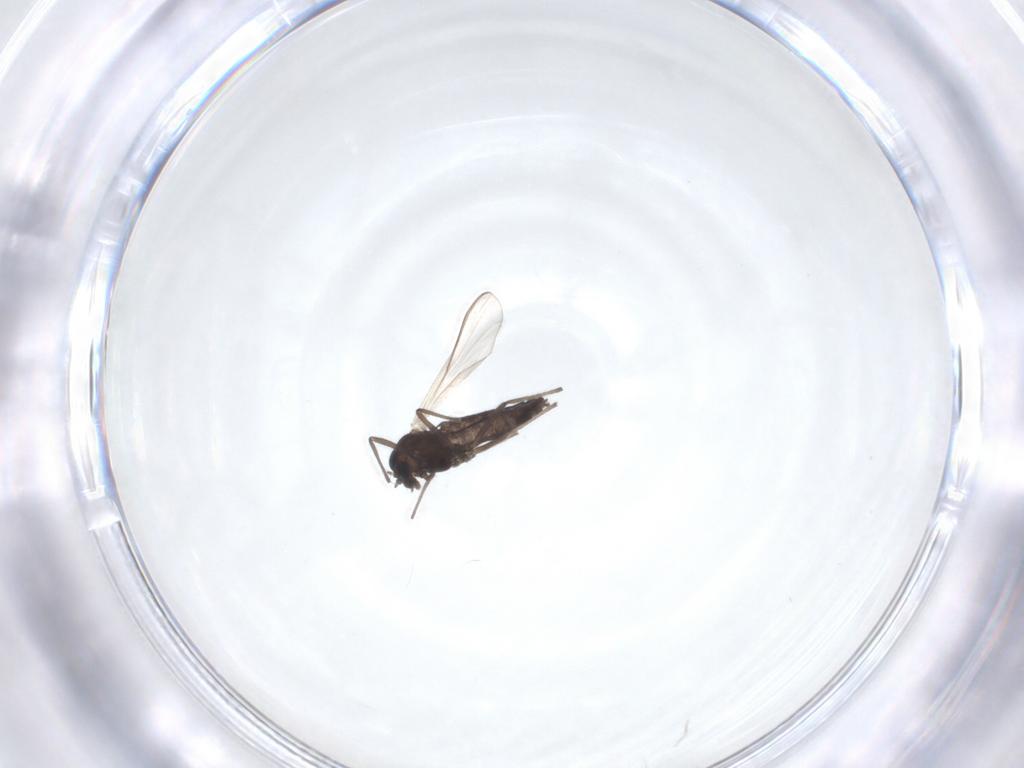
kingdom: Animalia
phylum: Arthropoda
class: Insecta
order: Diptera
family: Chironomidae
